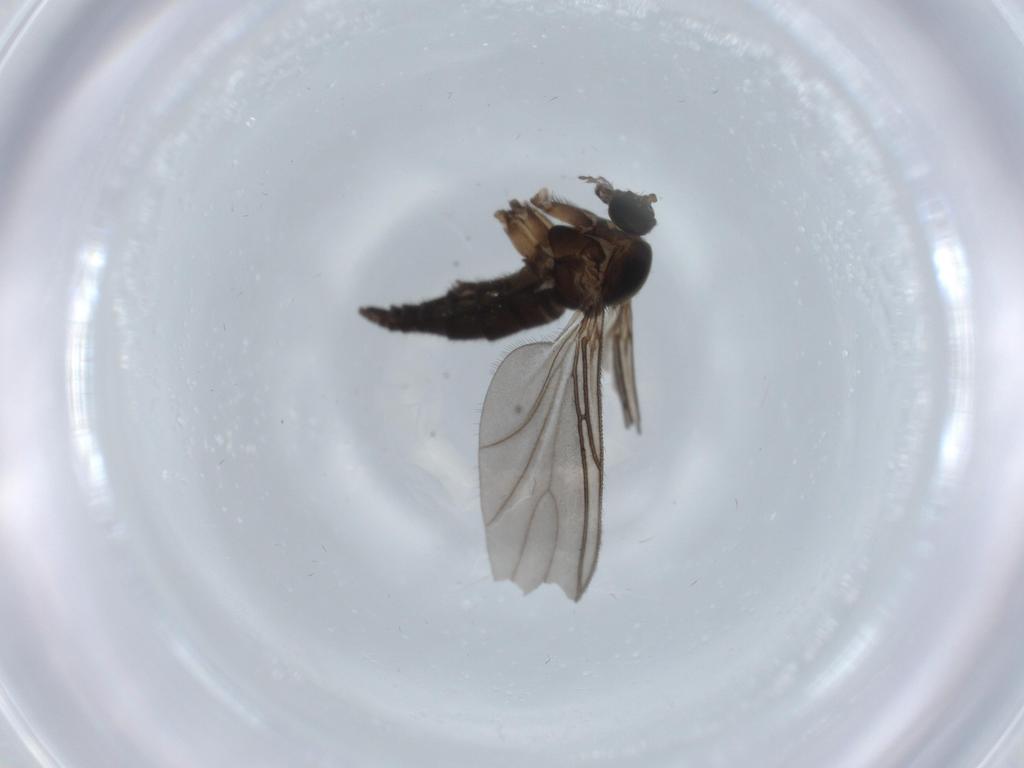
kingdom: Animalia
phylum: Arthropoda
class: Insecta
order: Diptera
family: Sciaridae
